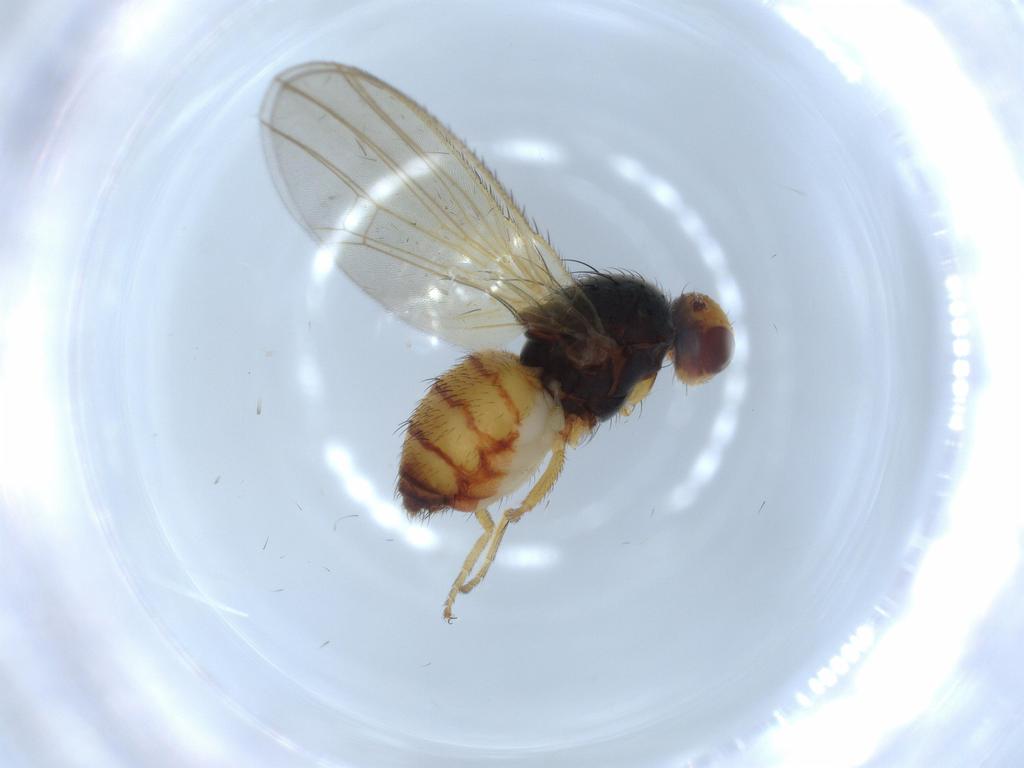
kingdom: Animalia
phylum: Arthropoda
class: Insecta
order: Diptera
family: Heleomyzidae
